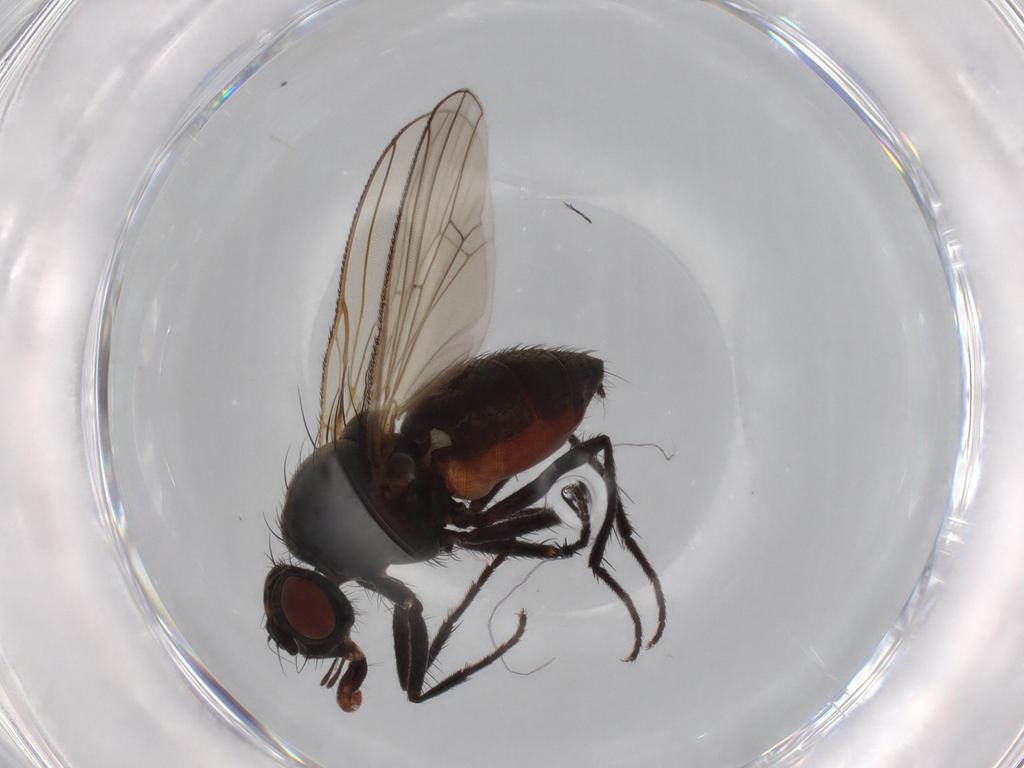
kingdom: Animalia
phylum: Arthropoda
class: Insecta
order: Diptera
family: Anthomyiidae
